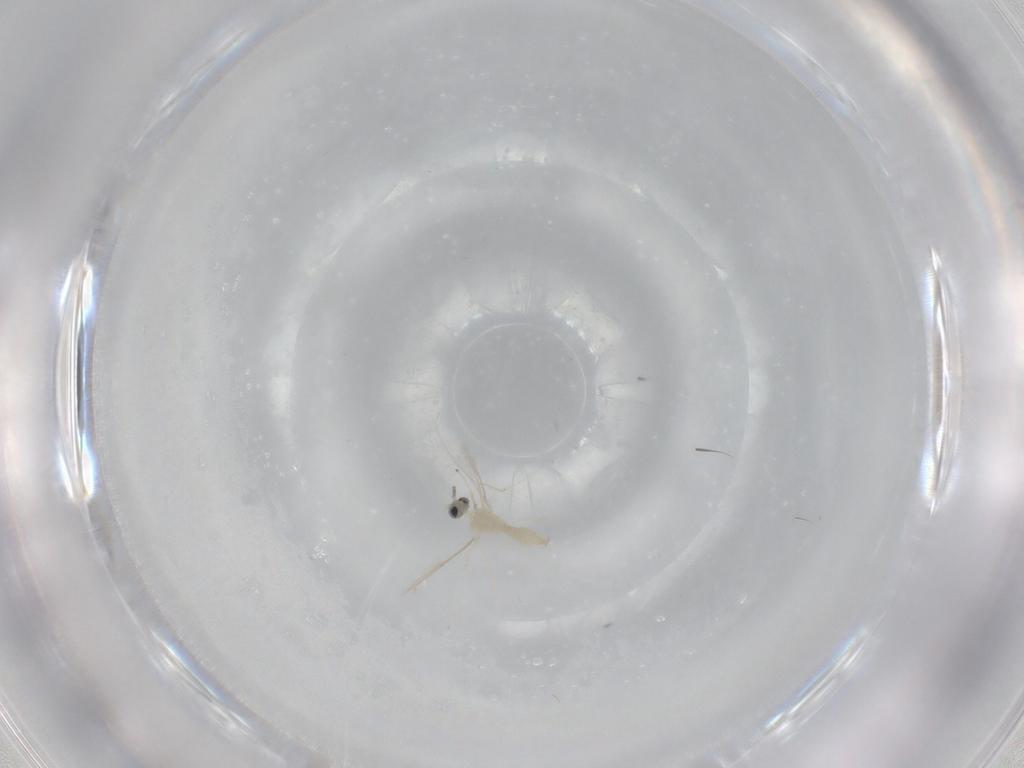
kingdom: Animalia
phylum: Arthropoda
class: Insecta
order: Diptera
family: Cecidomyiidae
